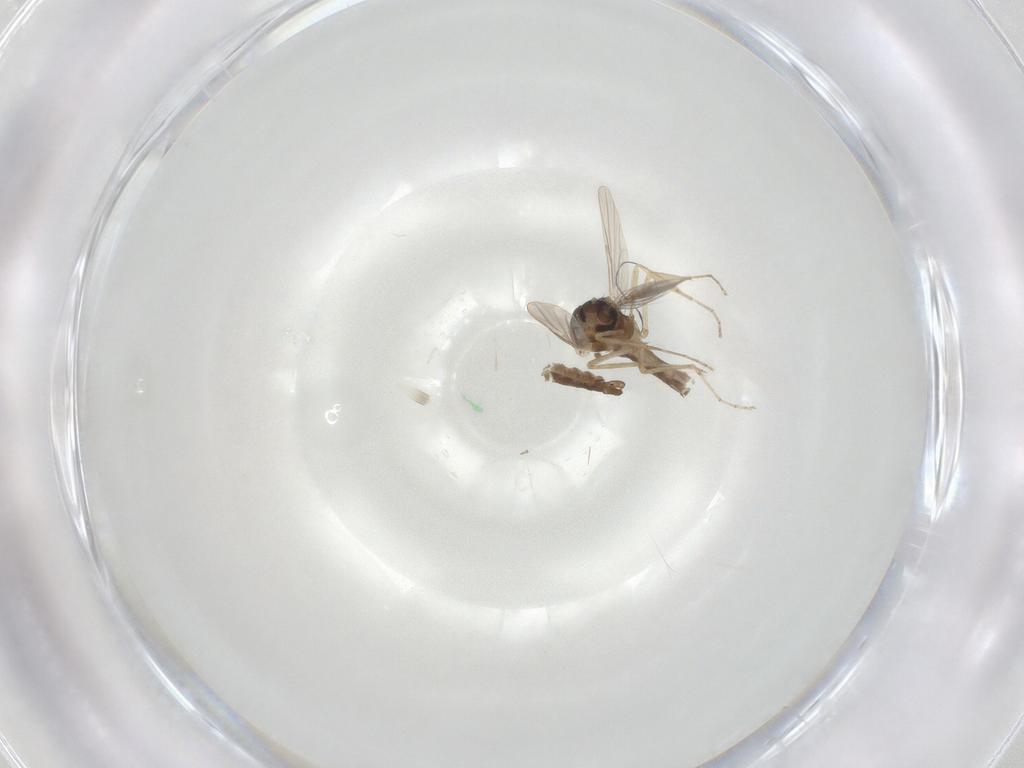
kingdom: Animalia
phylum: Arthropoda
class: Insecta
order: Diptera
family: Ceratopogonidae
